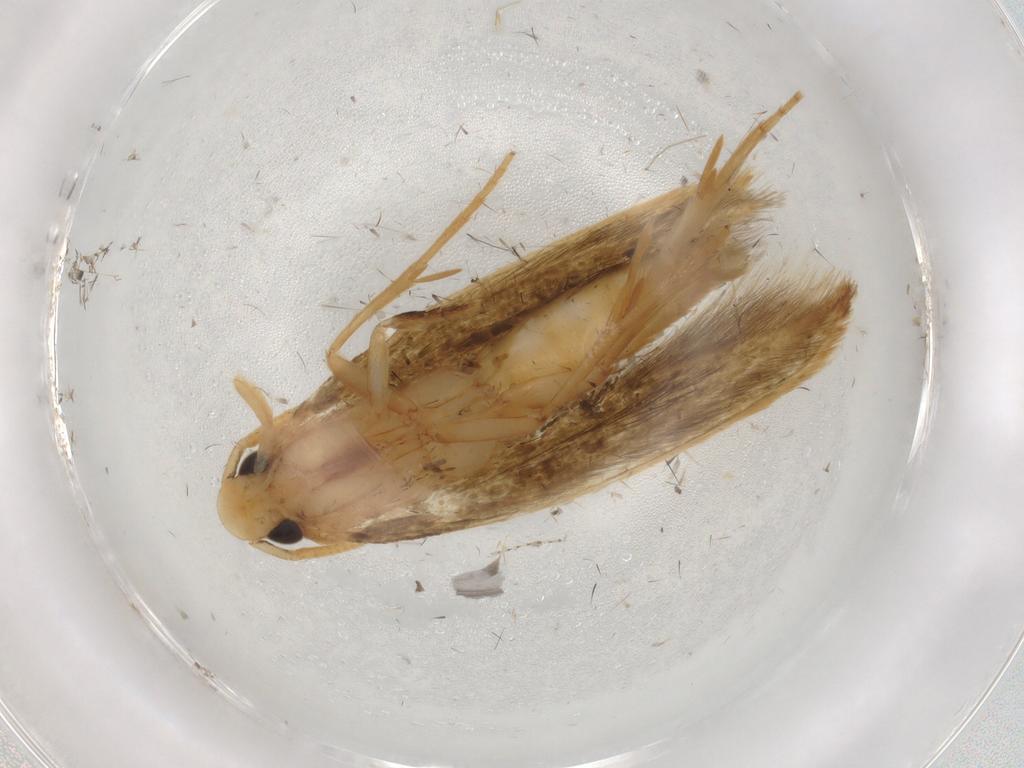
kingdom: Animalia
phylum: Arthropoda
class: Insecta
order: Lepidoptera
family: Tineidae
